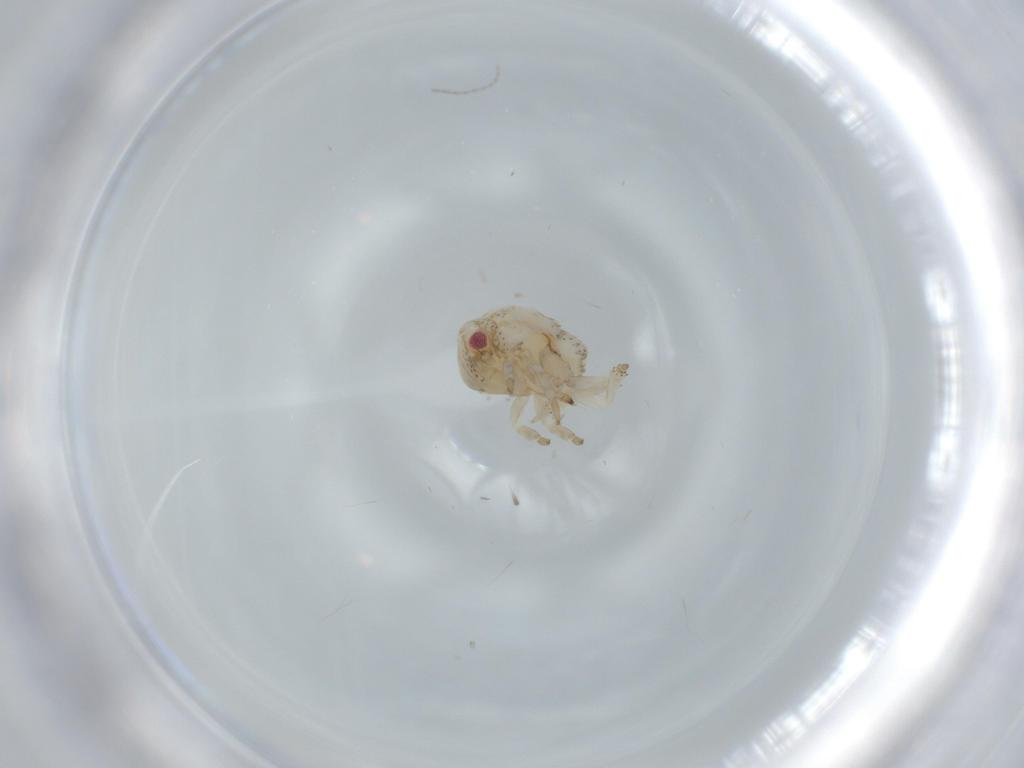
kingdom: Animalia
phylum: Arthropoda
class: Insecta
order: Hemiptera
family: Acanaloniidae
